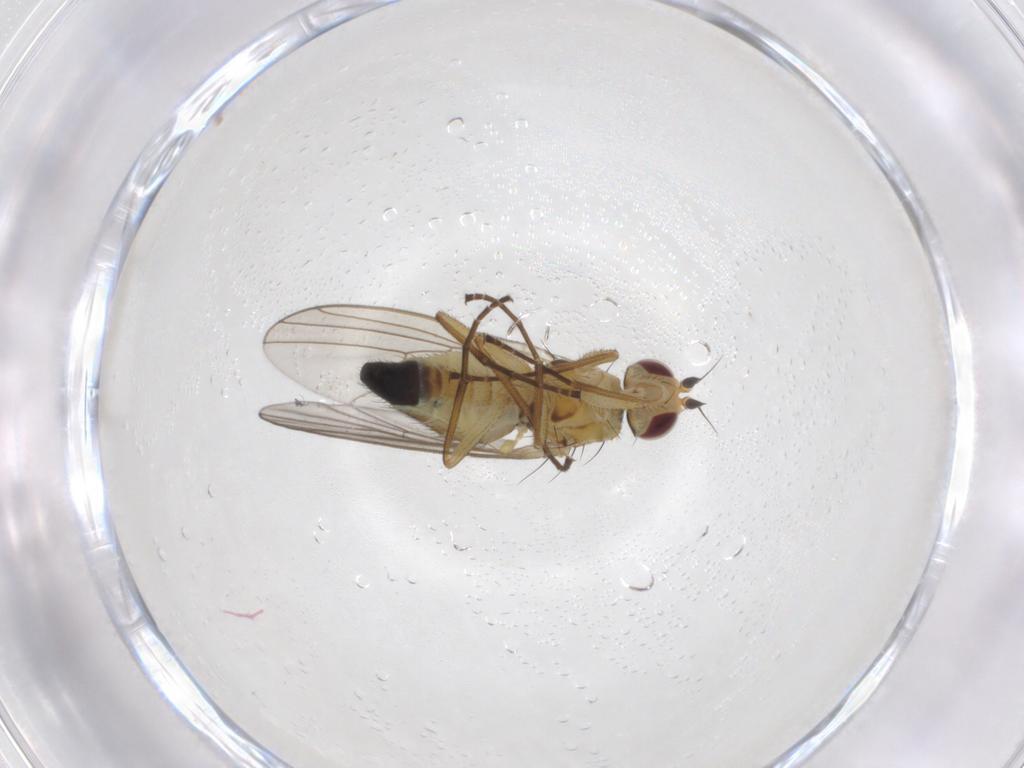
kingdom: Animalia
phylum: Arthropoda
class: Insecta
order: Diptera
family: Agromyzidae
